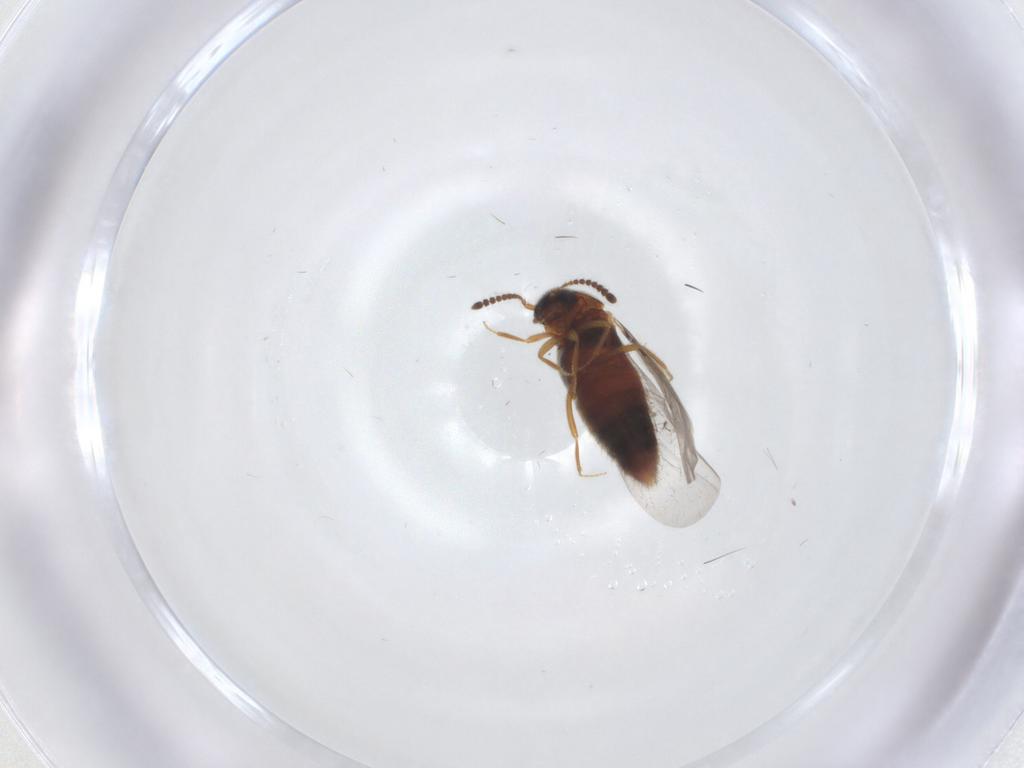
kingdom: Animalia
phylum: Arthropoda
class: Insecta
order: Coleoptera
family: Staphylinidae
